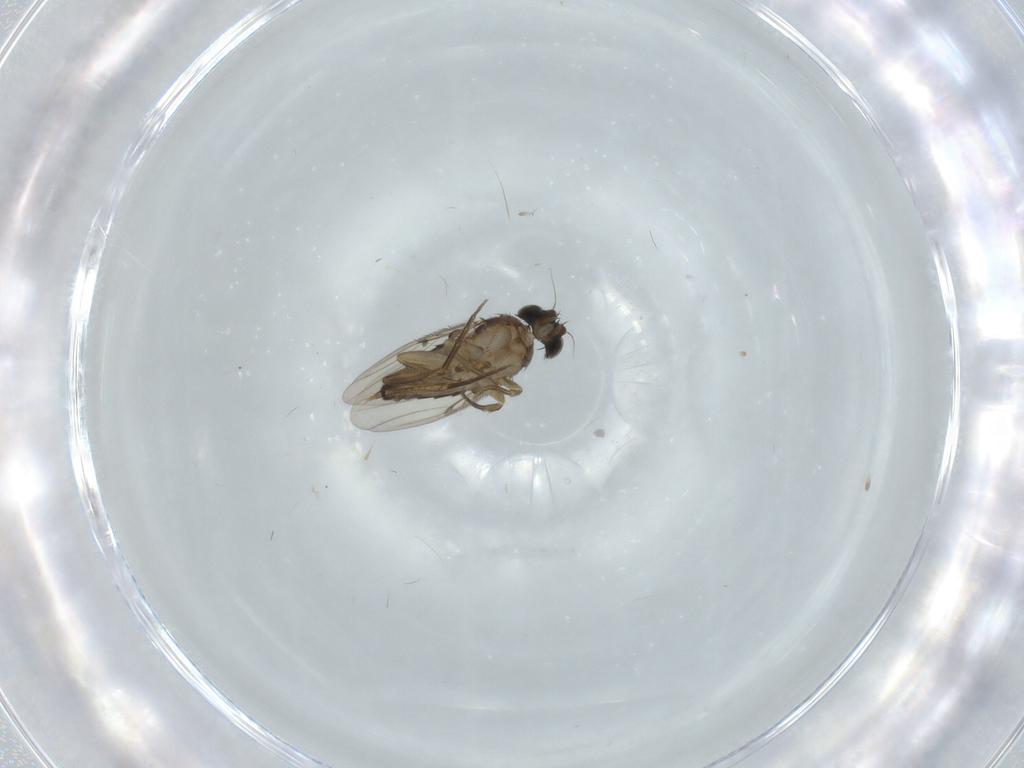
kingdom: Animalia
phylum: Arthropoda
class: Insecta
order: Diptera
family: Phoridae
